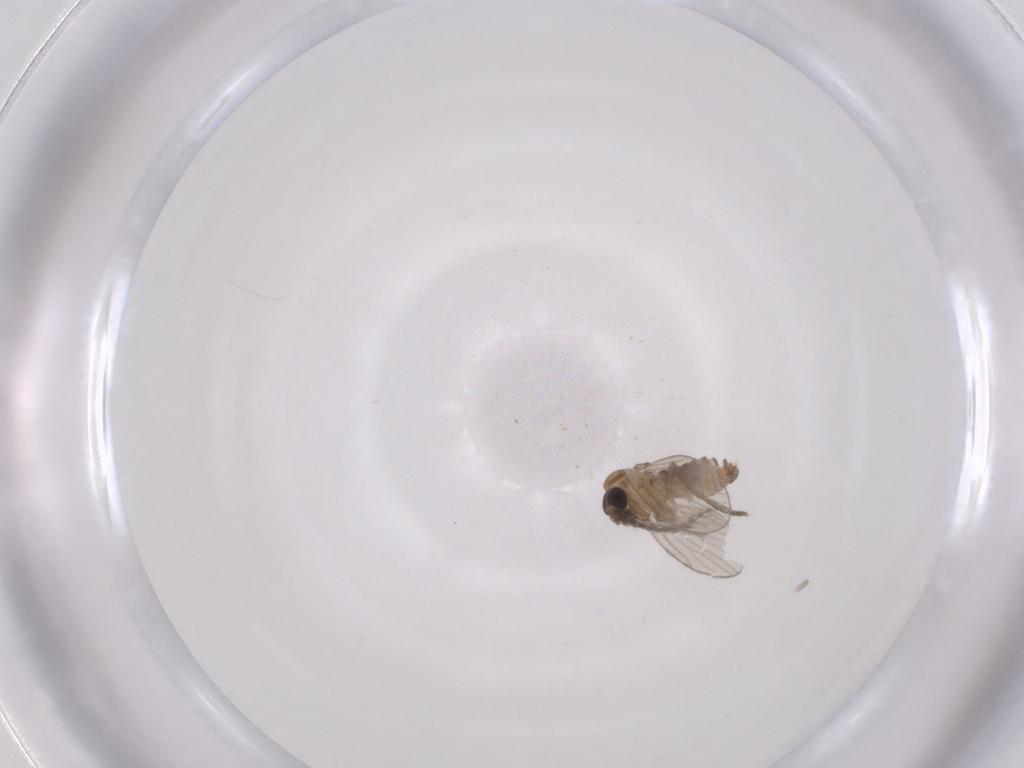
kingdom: Animalia
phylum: Arthropoda
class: Insecta
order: Diptera
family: Psychodidae
